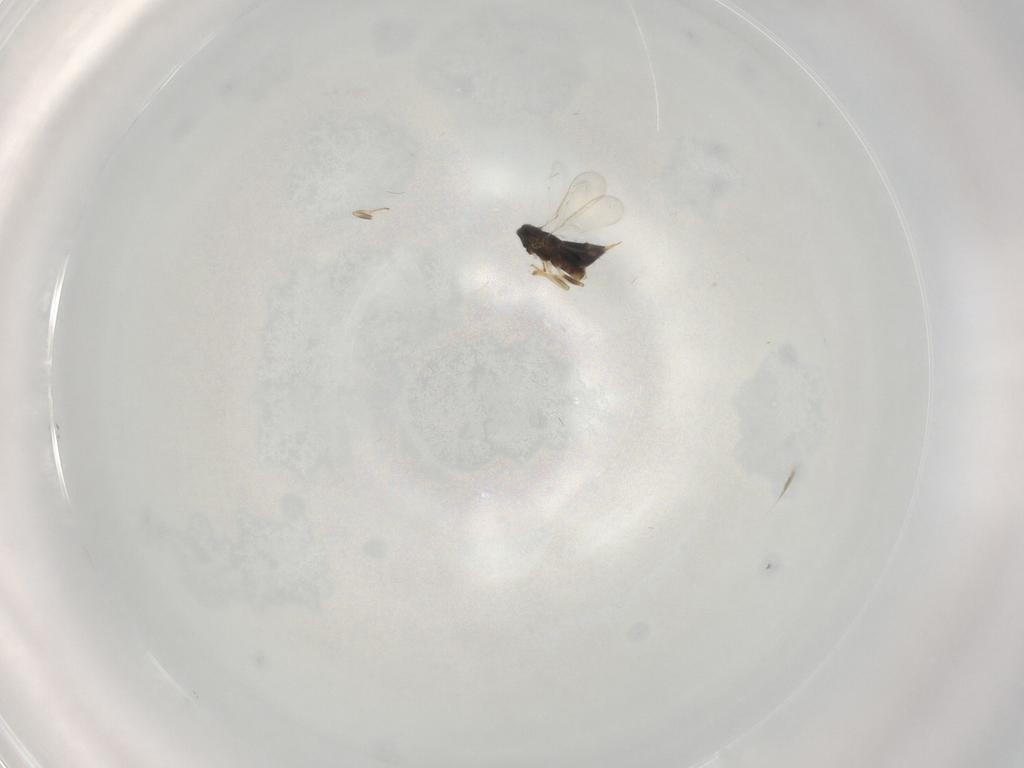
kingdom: Animalia
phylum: Arthropoda
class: Insecta
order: Hymenoptera
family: Aphelinidae
